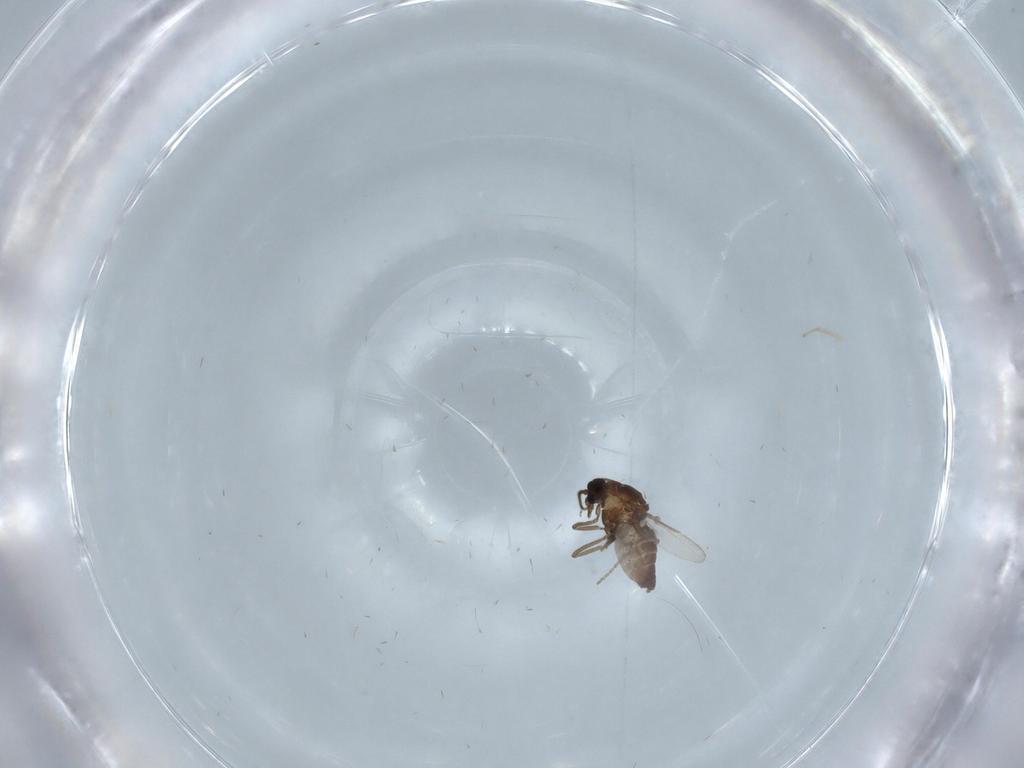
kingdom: Animalia
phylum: Arthropoda
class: Insecta
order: Diptera
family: Ceratopogonidae
